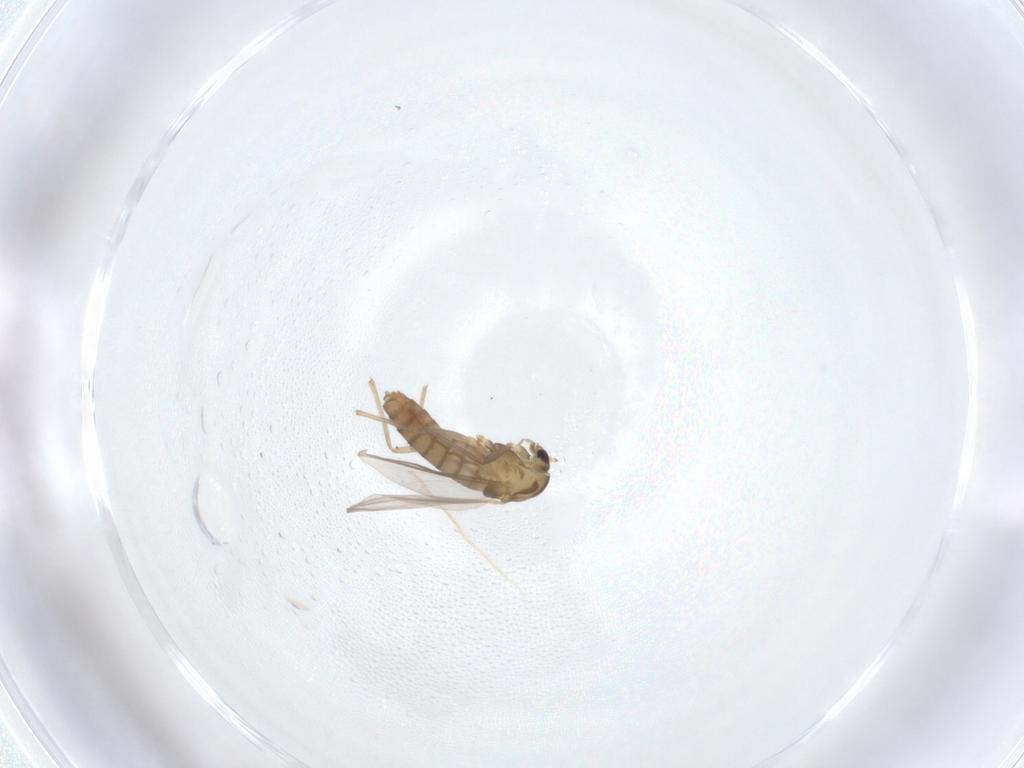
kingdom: Animalia
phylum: Arthropoda
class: Insecta
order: Diptera
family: Chironomidae
